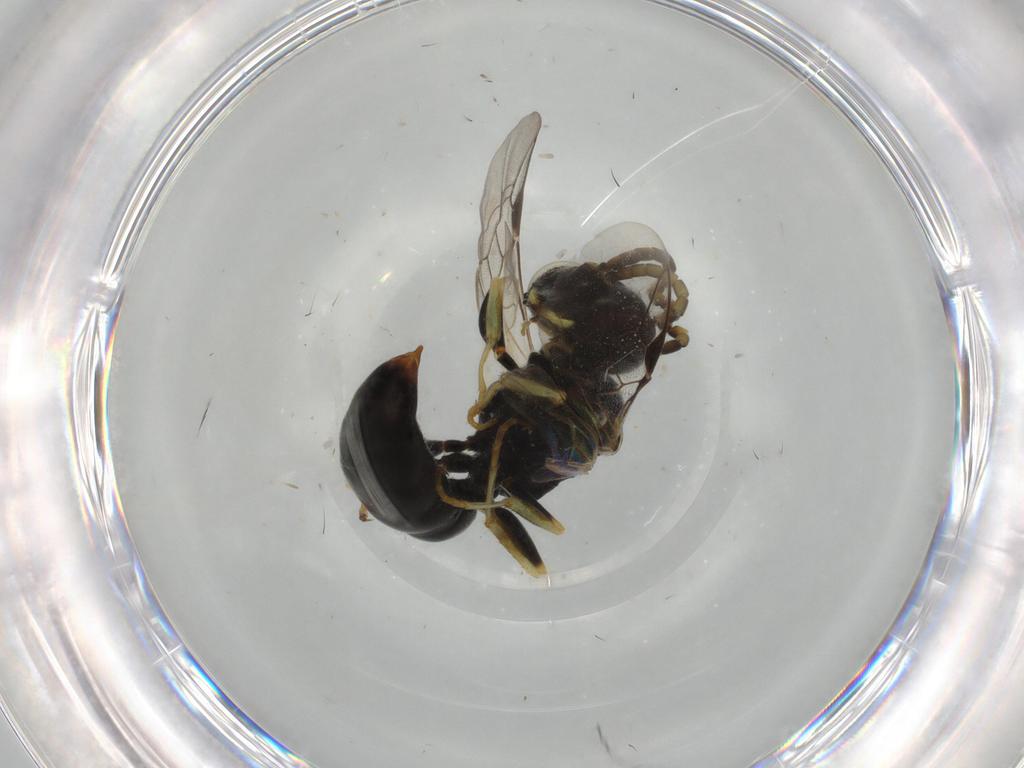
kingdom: Animalia
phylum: Arthropoda
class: Insecta
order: Hymenoptera
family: Crabronidae
